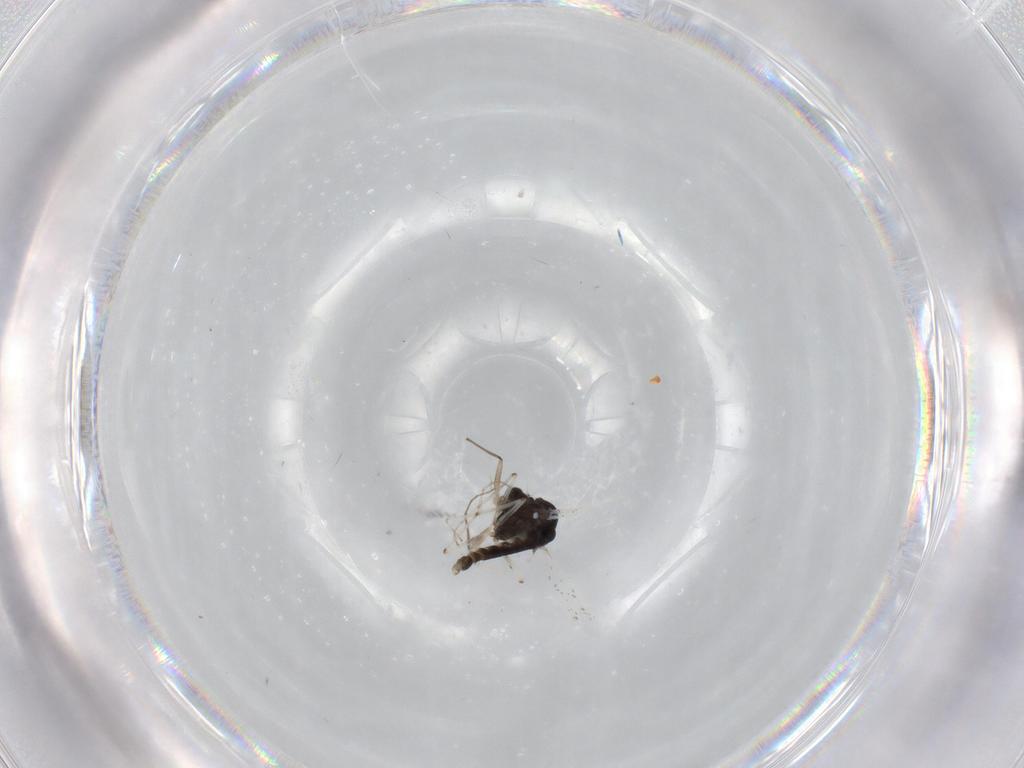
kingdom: Animalia
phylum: Arthropoda
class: Insecta
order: Diptera
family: Chironomidae
